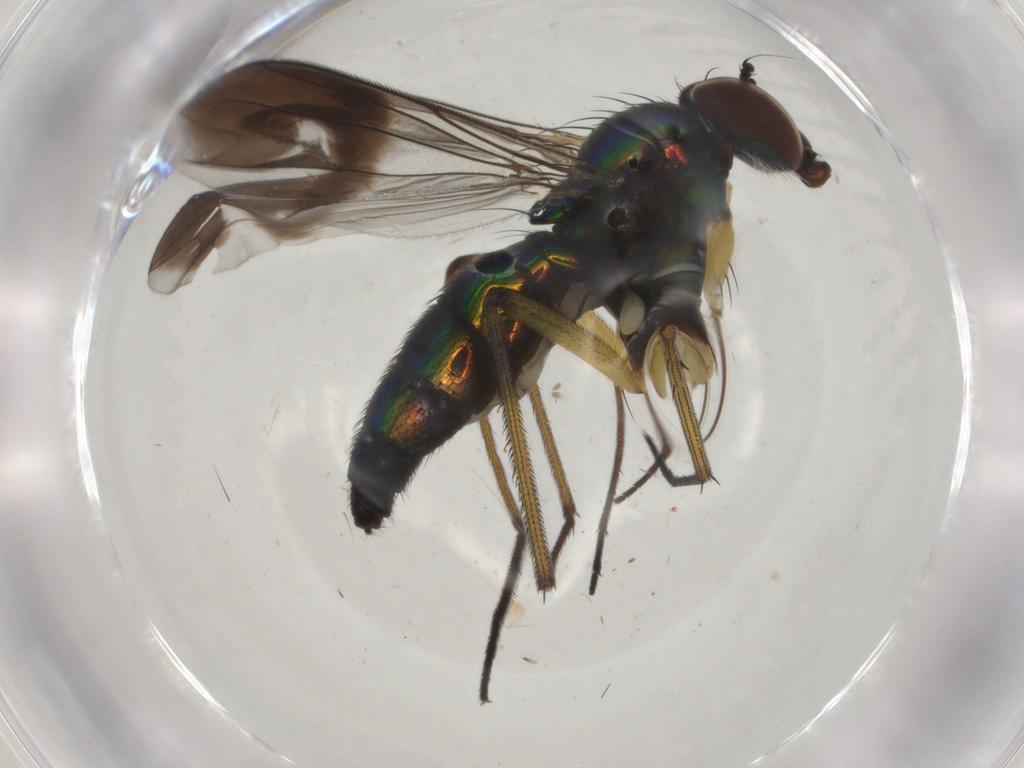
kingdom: Animalia
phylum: Arthropoda
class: Insecta
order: Diptera
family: Dolichopodidae
